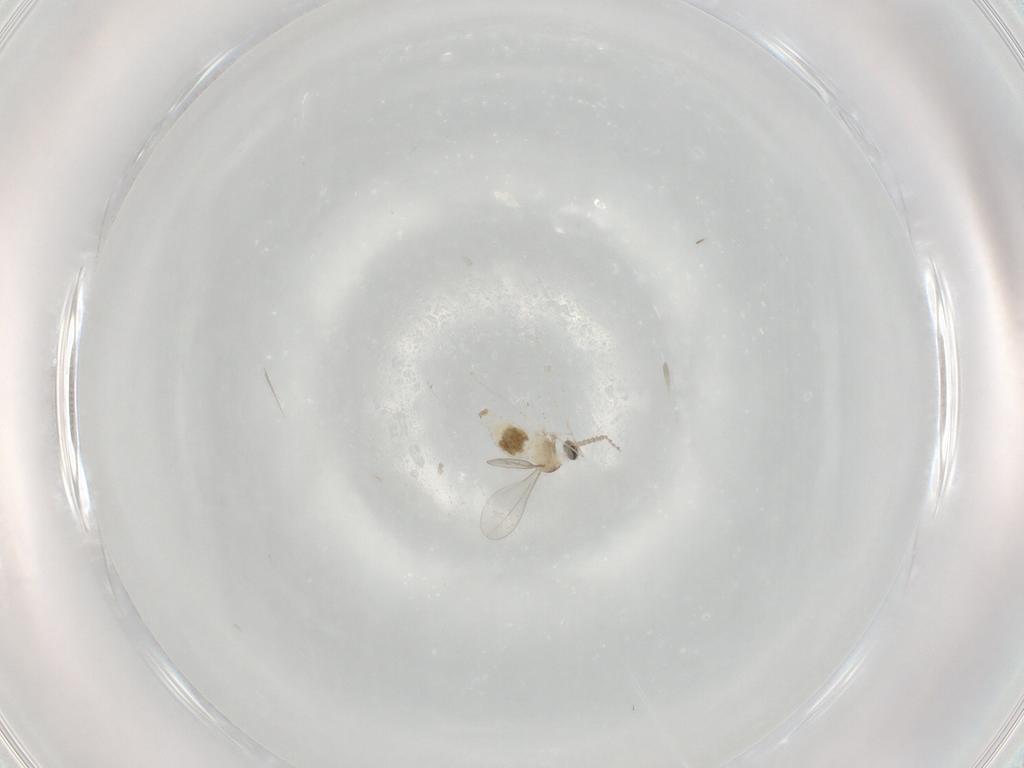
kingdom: Animalia
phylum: Arthropoda
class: Insecta
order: Diptera
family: Cecidomyiidae
